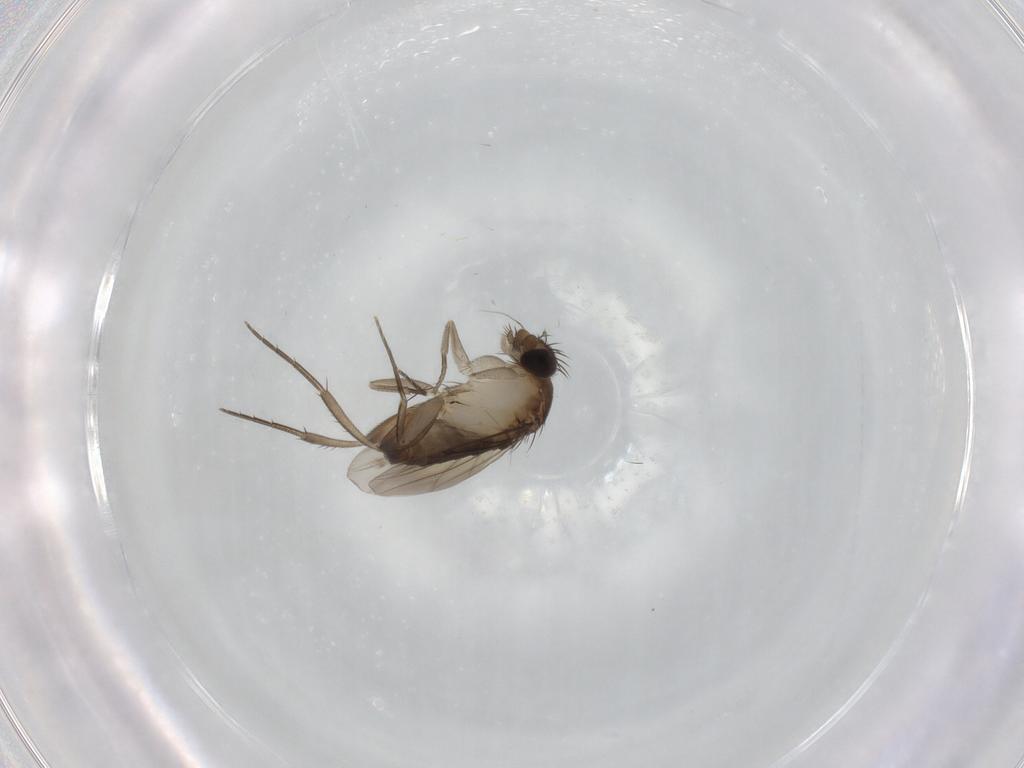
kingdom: Animalia
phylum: Arthropoda
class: Insecta
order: Diptera
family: Phoridae
